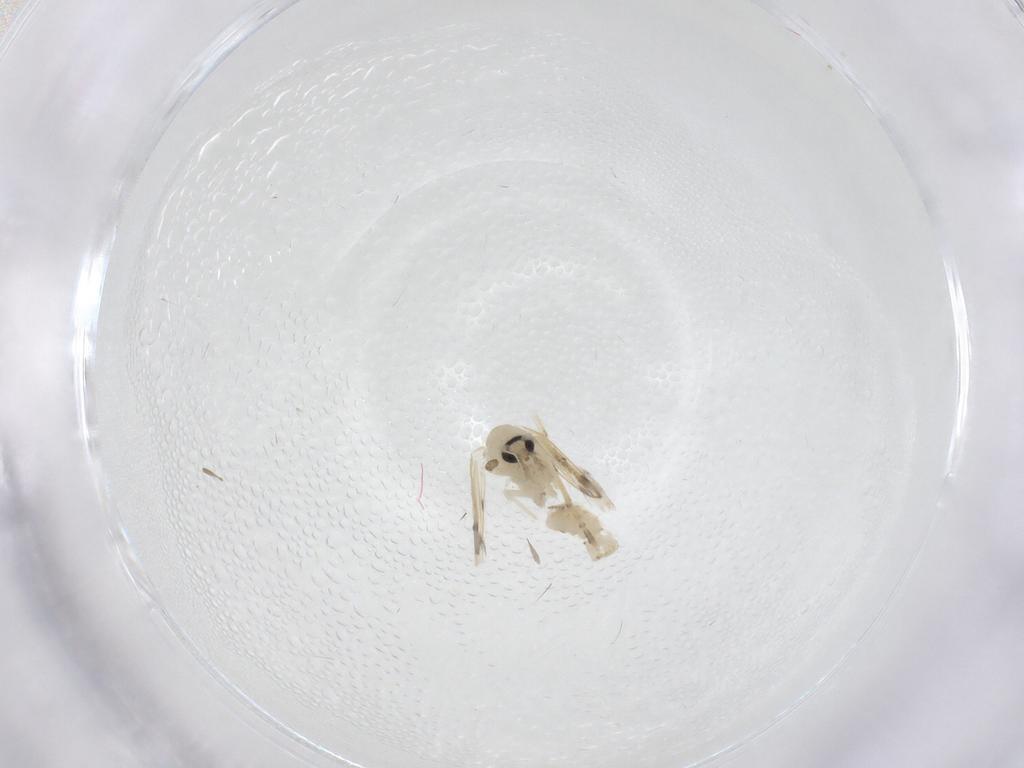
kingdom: Animalia
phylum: Arthropoda
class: Insecta
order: Diptera
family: Psychodidae
